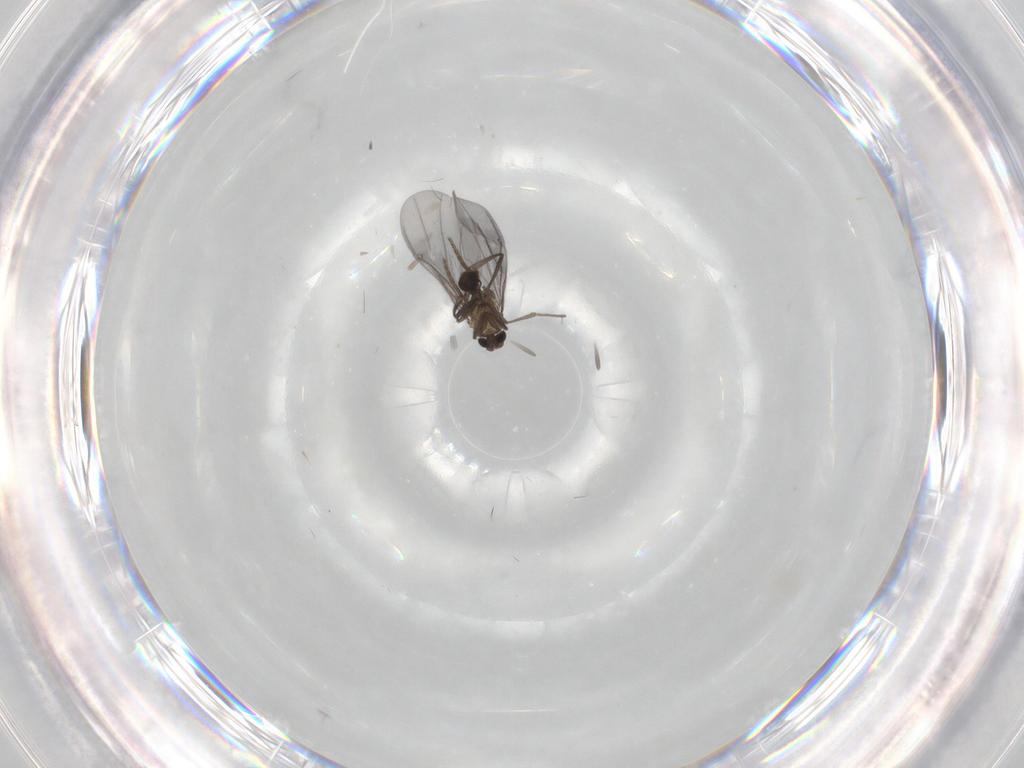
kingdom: Animalia
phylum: Arthropoda
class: Insecta
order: Diptera
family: Phoridae
